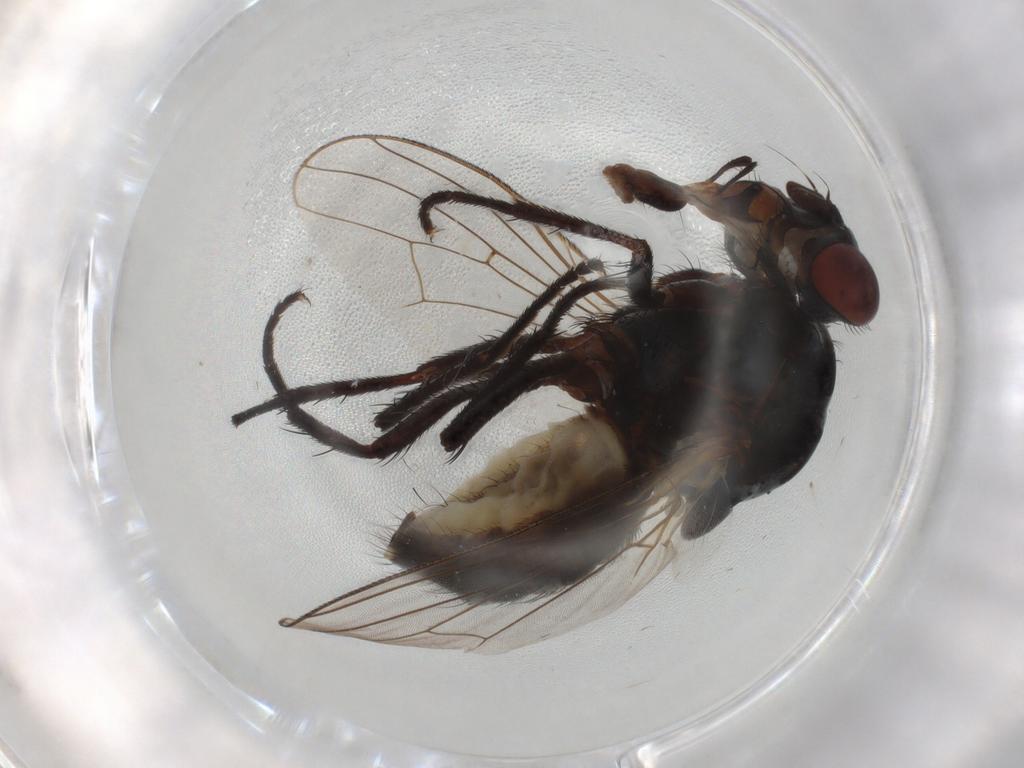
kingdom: Animalia
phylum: Arthropoda
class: Insecta
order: Diptera
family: Anthomyiidae
